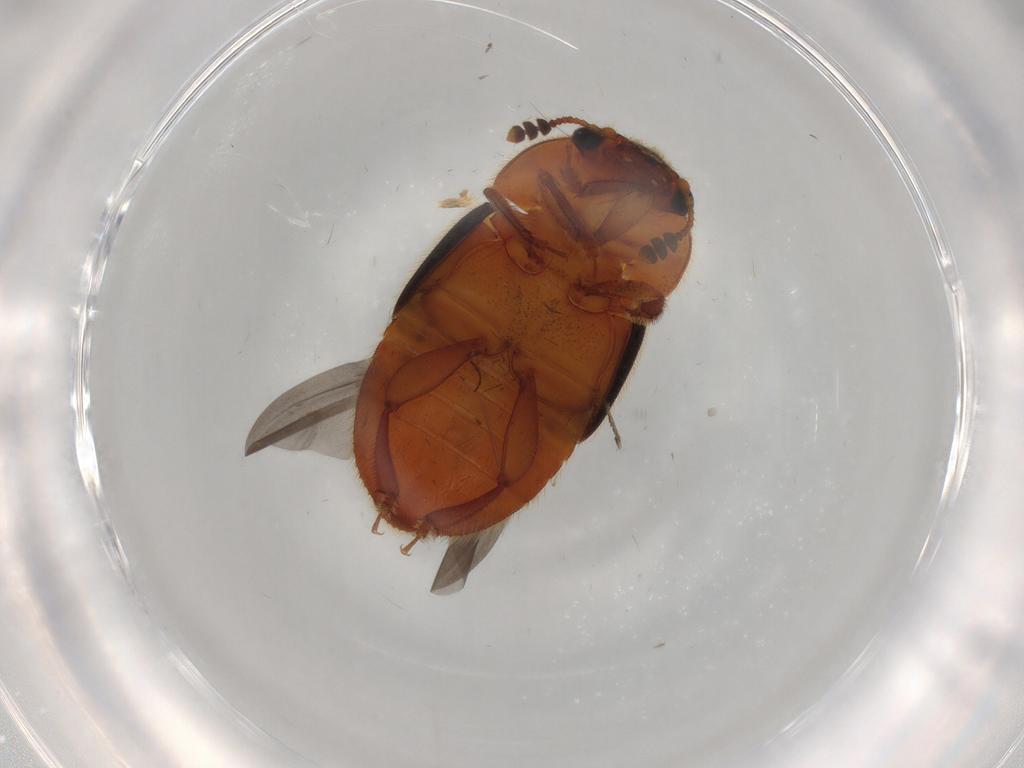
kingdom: Animalia
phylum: Arthropoda
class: Insecta
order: Coleoptera
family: Nitidulidae
